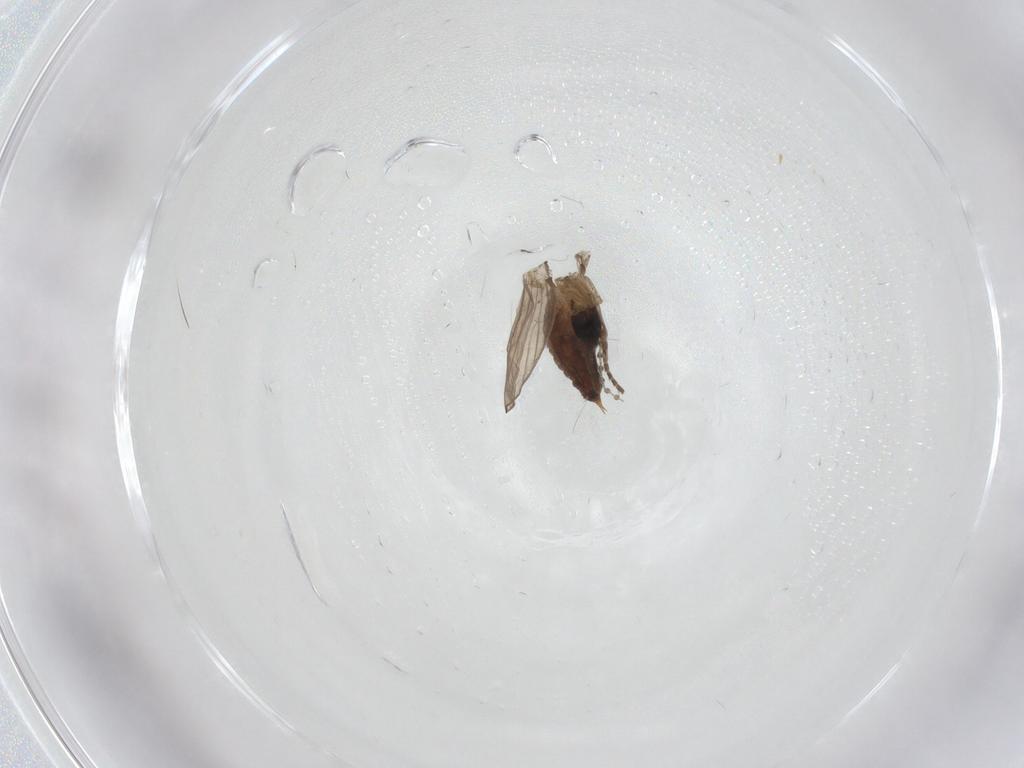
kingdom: Animalia
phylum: Arthropoda
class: Insecta
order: Diptera
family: Psychodidae
